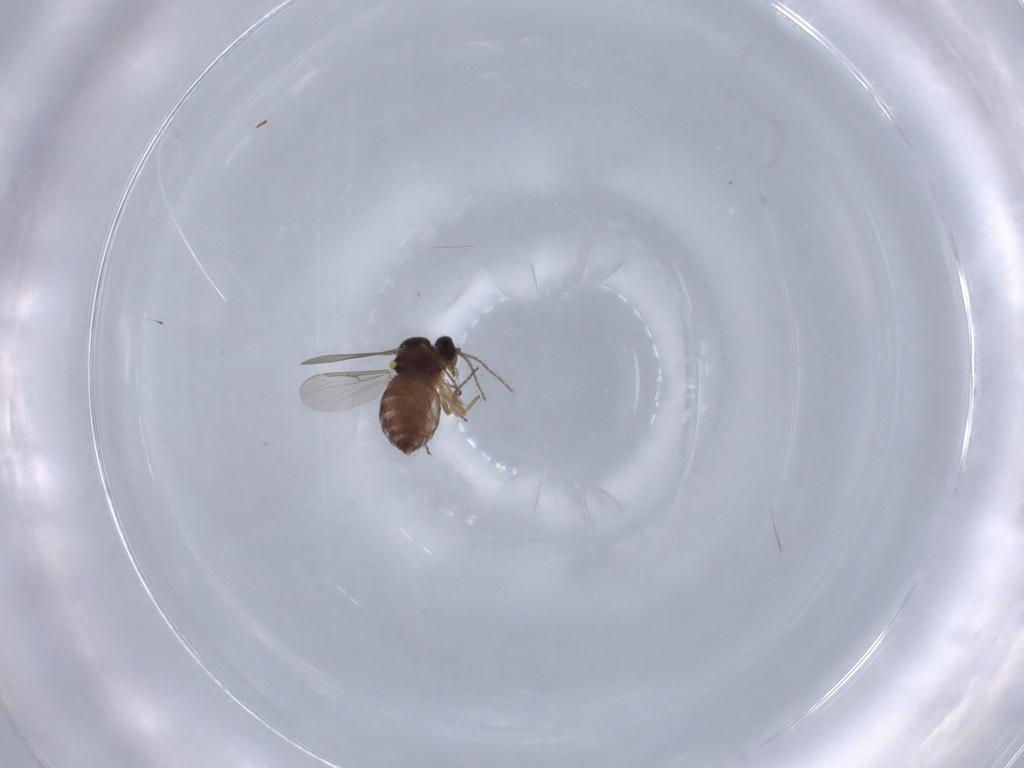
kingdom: Animalia
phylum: Arthropoda
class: Insecta
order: Diptera
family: Ceratopogonidae
